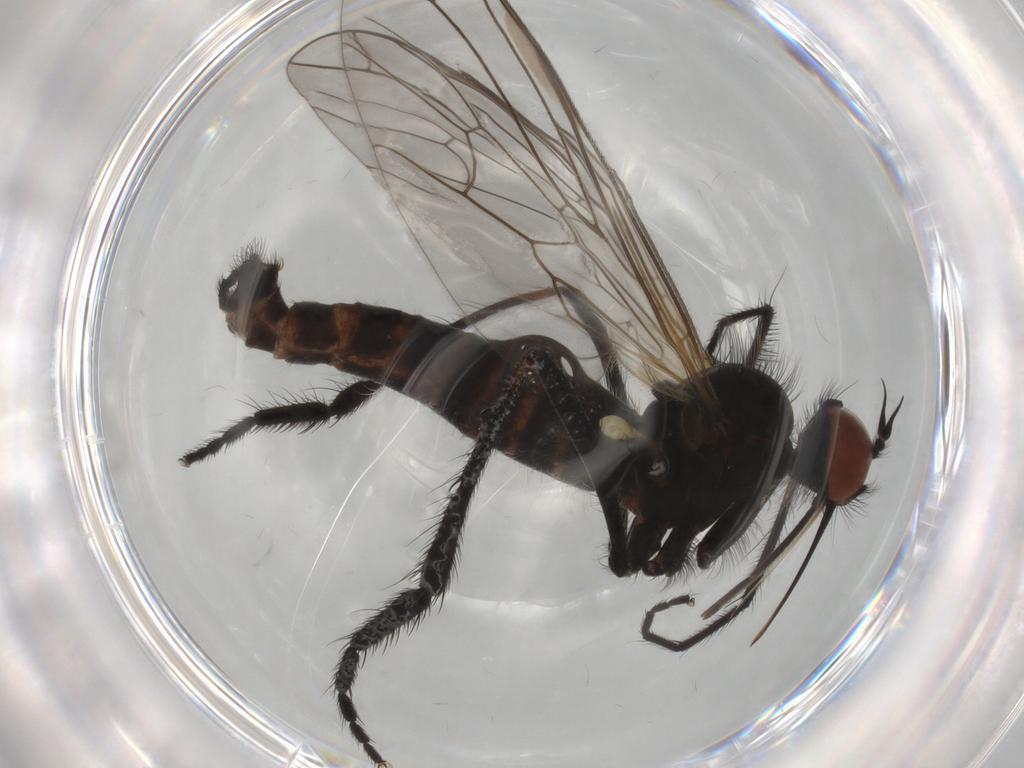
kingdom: Animalia
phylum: Arthropoda
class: Insecta
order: Diptera
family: Empididae
